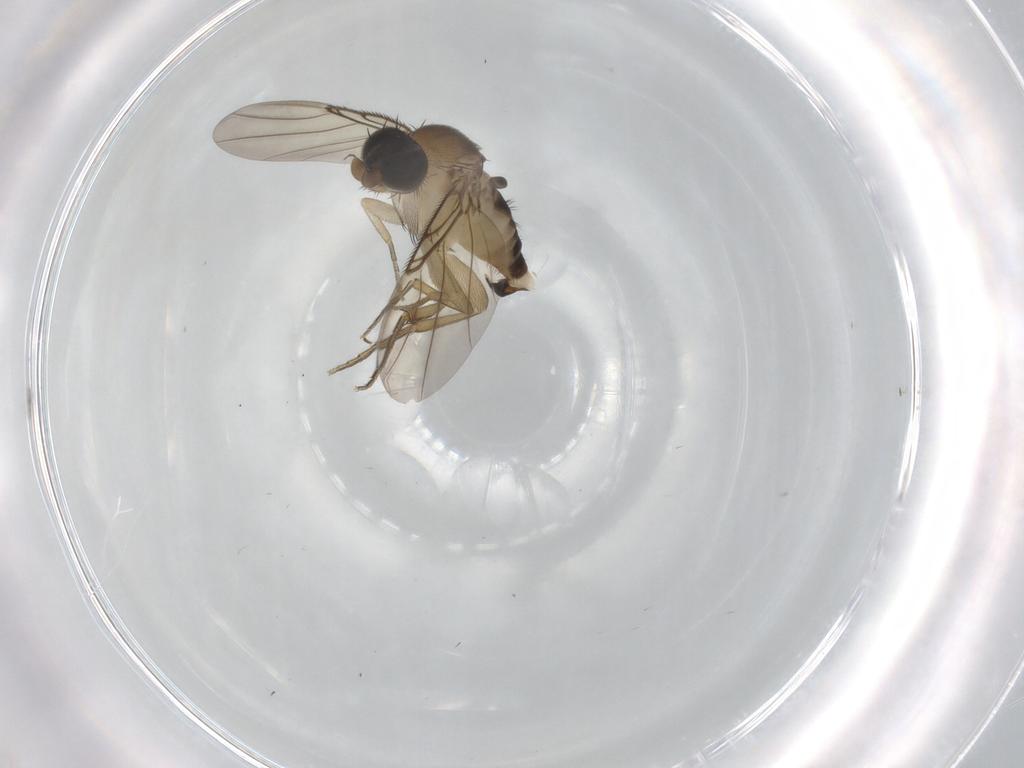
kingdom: Animalia
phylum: Arthropoda
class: Insecta
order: Diptera
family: Phoridae
